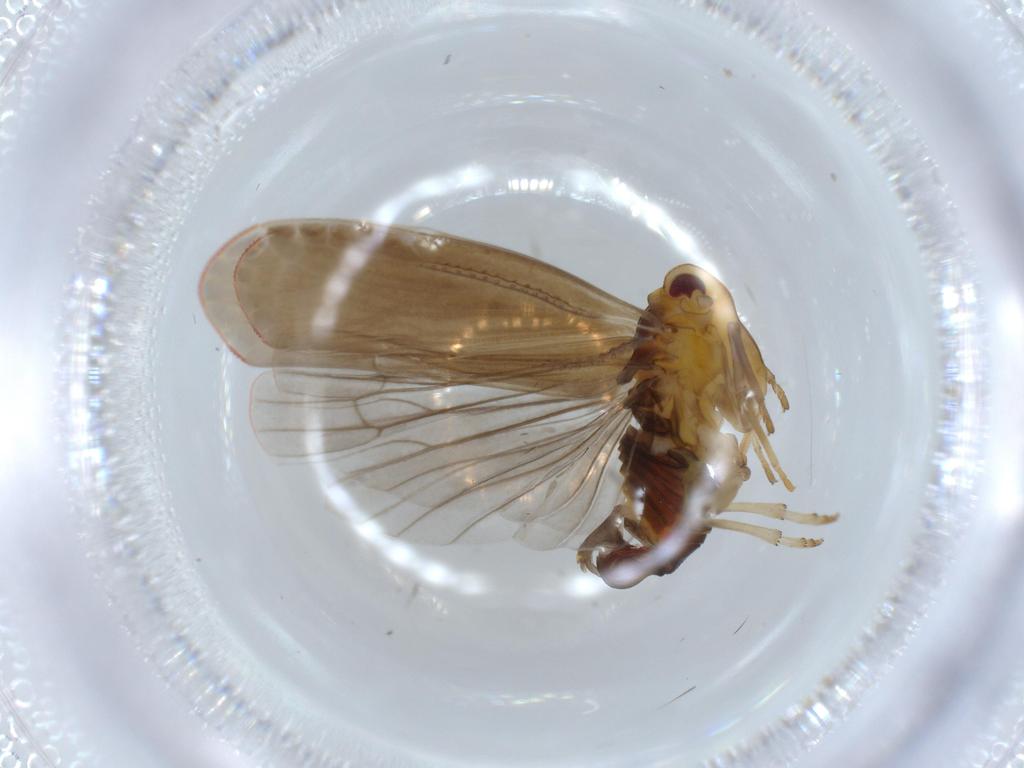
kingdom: Animalia
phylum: Arthropoda
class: Insecta
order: Hemiptera
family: Derbidae
